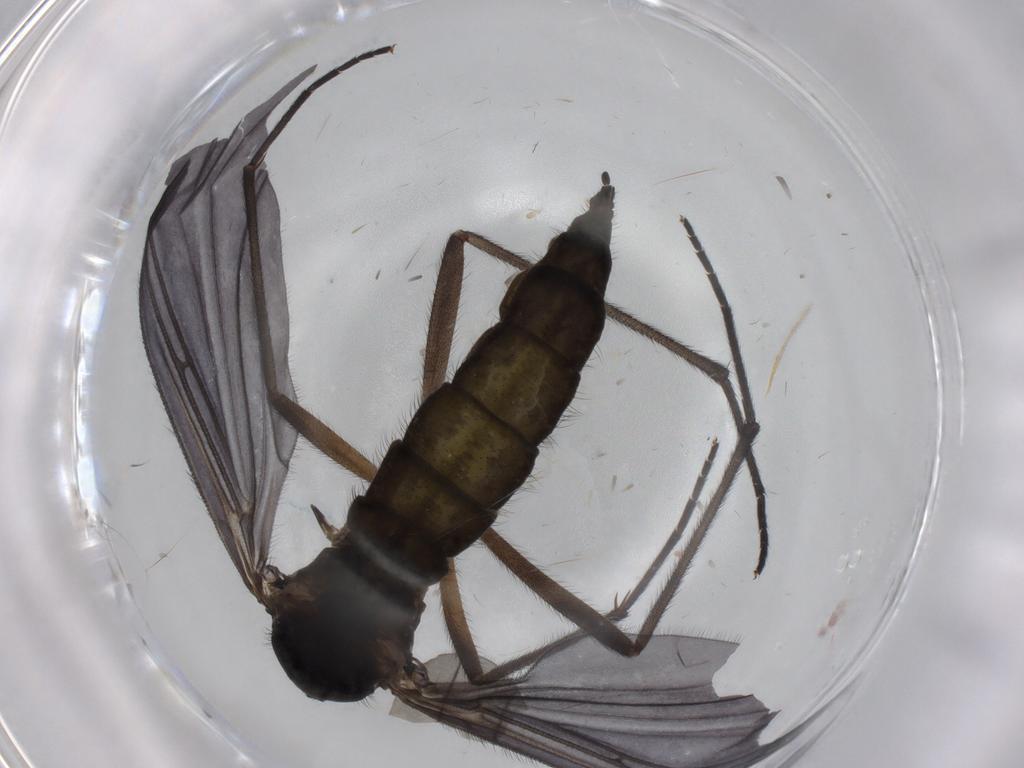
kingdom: Animalia
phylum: Arthropoda
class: Insecta
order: Diptera
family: Sciaridae
